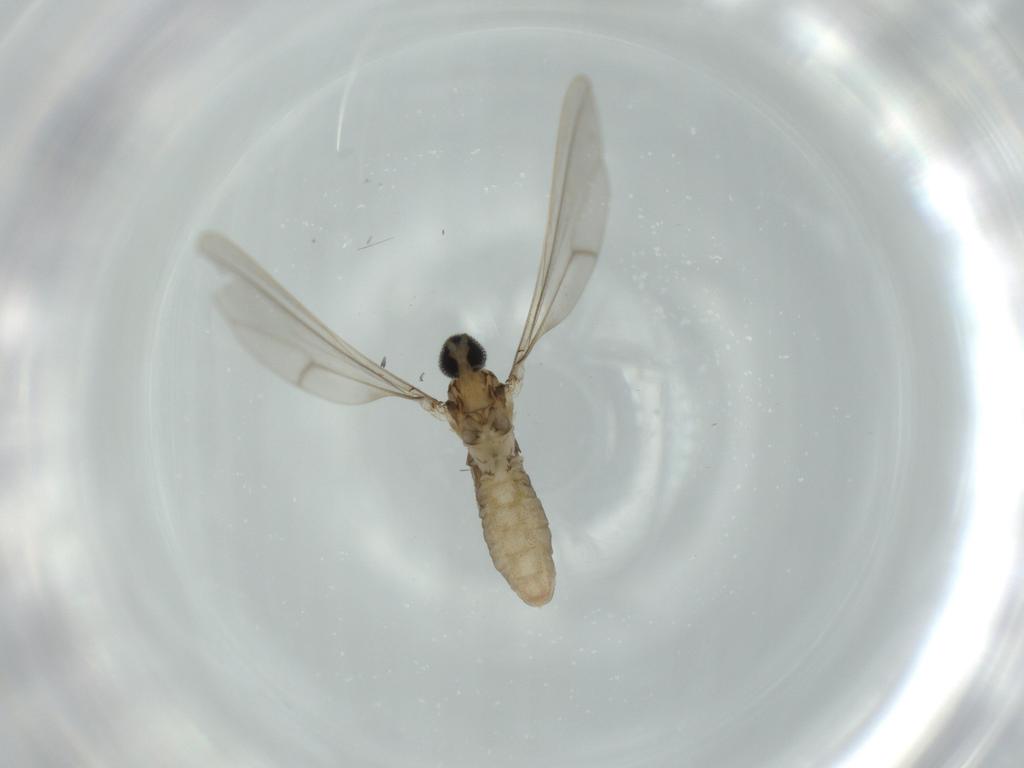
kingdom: Animalia
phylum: Arthropoda
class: Insecta
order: Diptera
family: Cecidomyiidae
